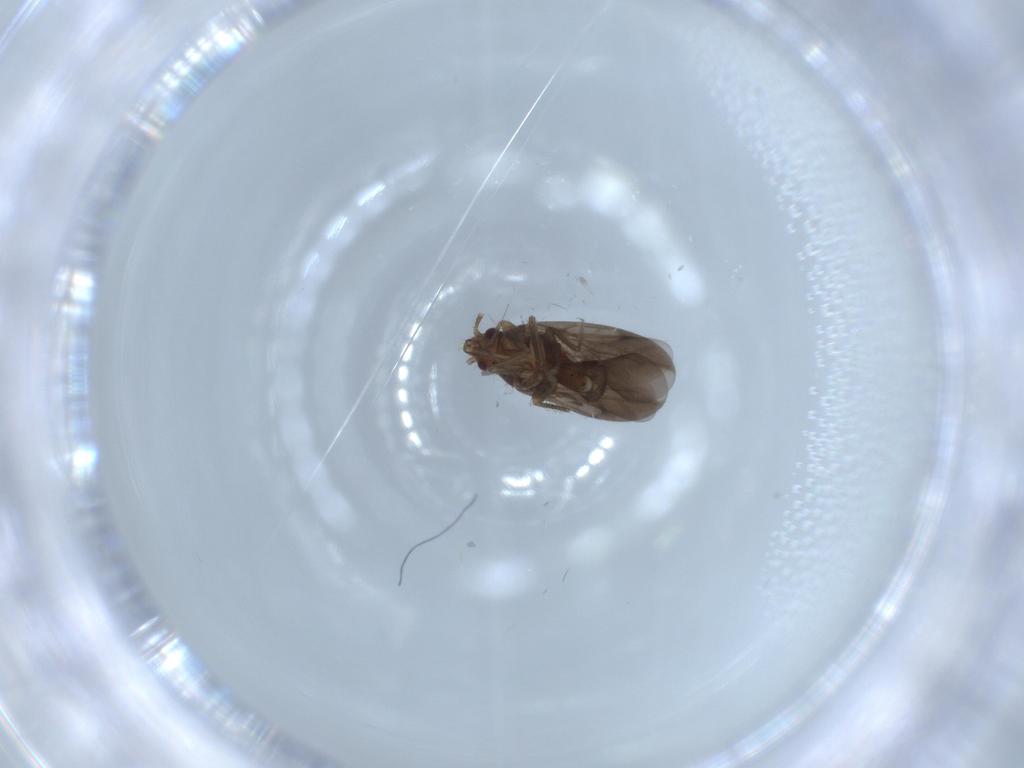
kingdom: Animalia
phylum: Arthropoda
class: Insecta
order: Hemiptera
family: Ceratocombidae
